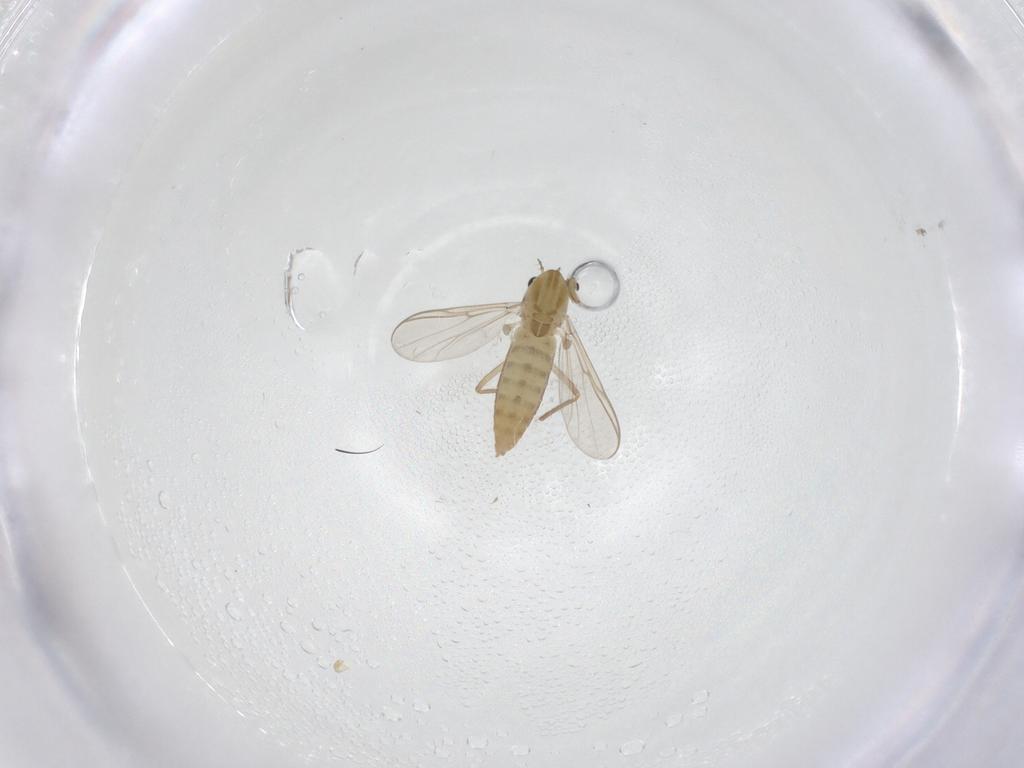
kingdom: Animalia
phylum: Arthropoda
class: Insecta
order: Diptera
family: Chironomidae
